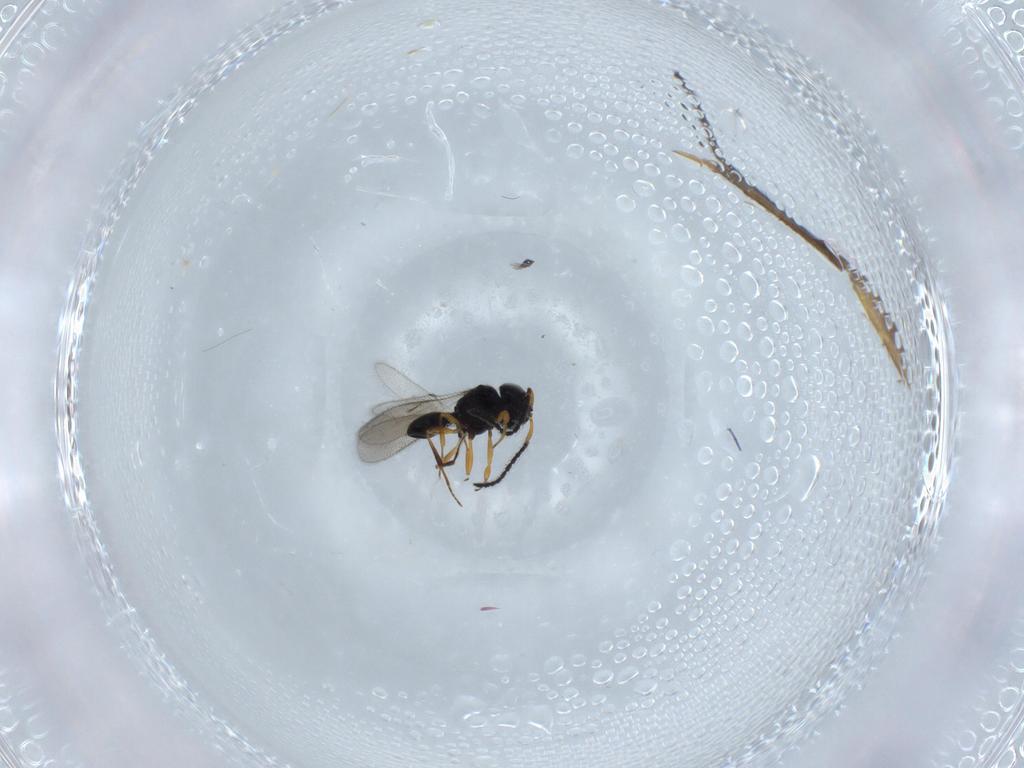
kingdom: Animalia
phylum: Arthropoda
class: Insecta
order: Hymenoptera
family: Scelionidae
